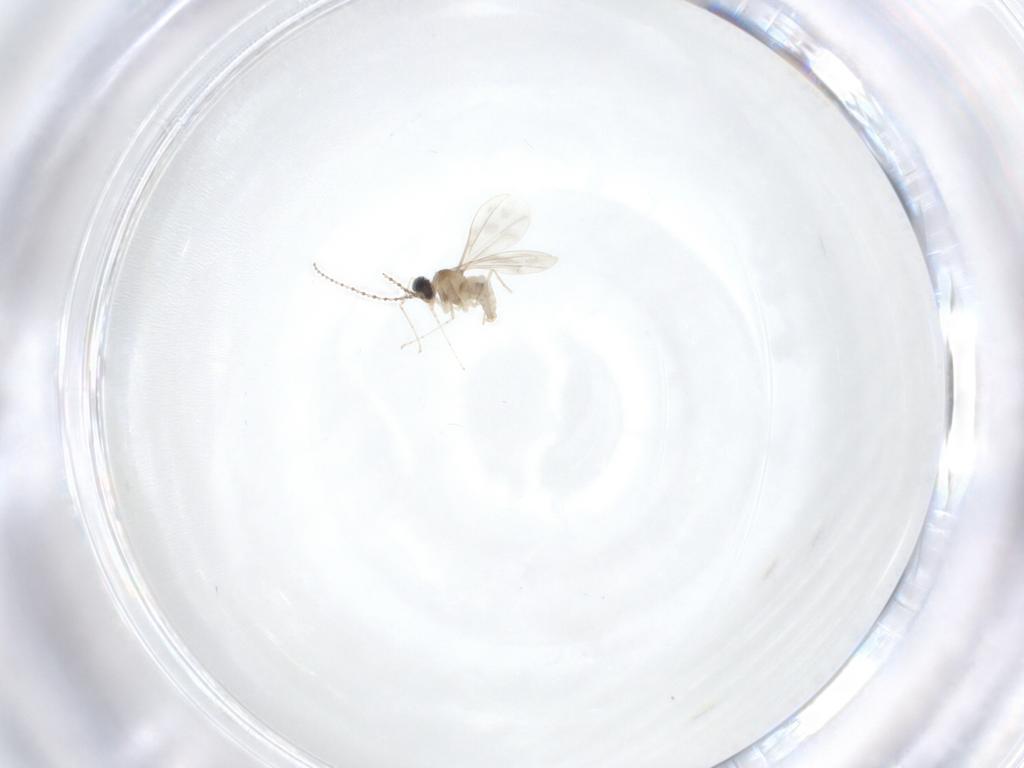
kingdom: Animalia
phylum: Arthropoda
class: Insecta
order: Diptera
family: Cecidomyiidae
